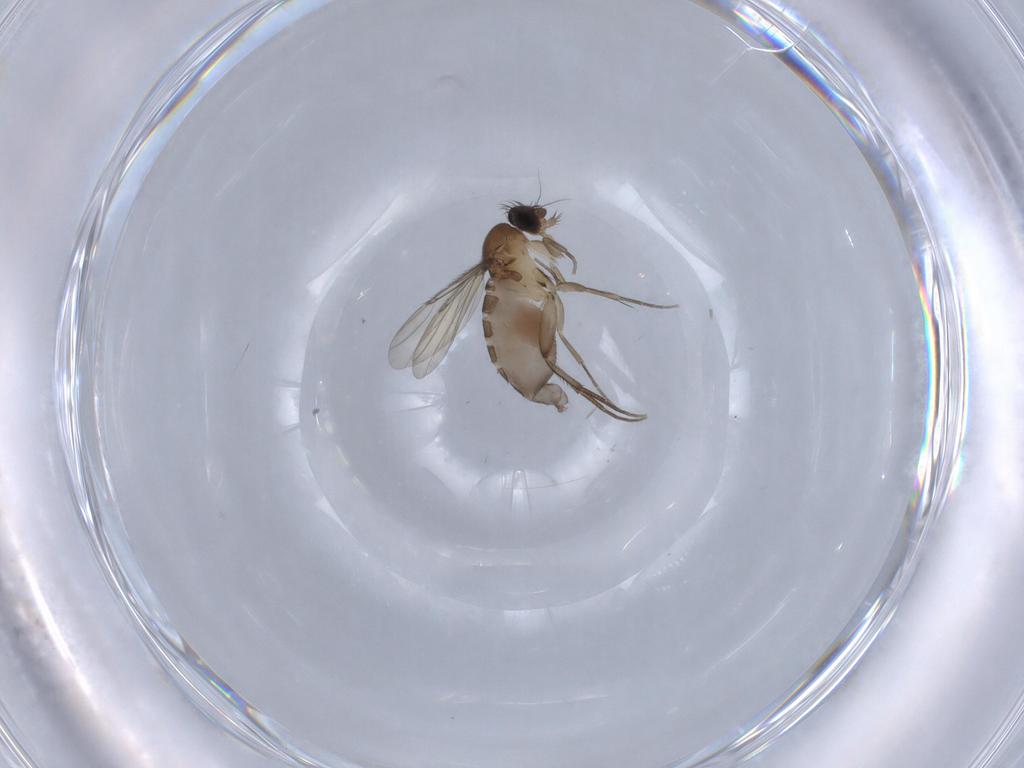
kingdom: Animalia
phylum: Arthropoda
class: Insecta
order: Diptera
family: Phoridae
